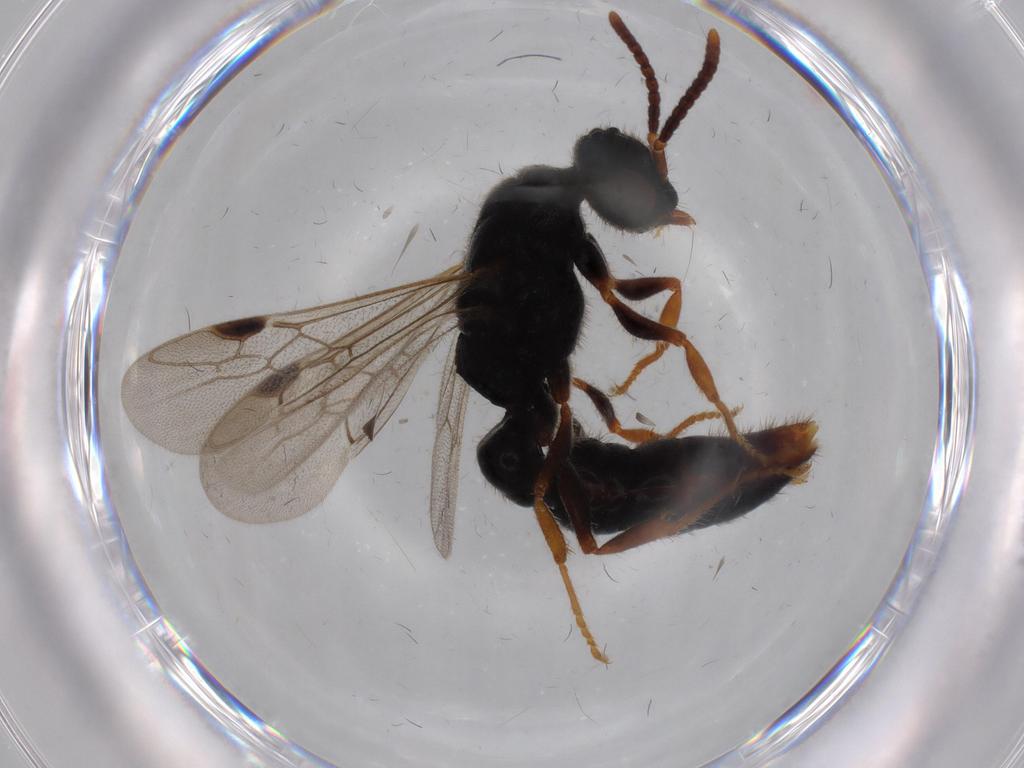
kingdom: Animalia
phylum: Arthropoda
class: Insecta
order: Hymenoptera
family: Formicidae
